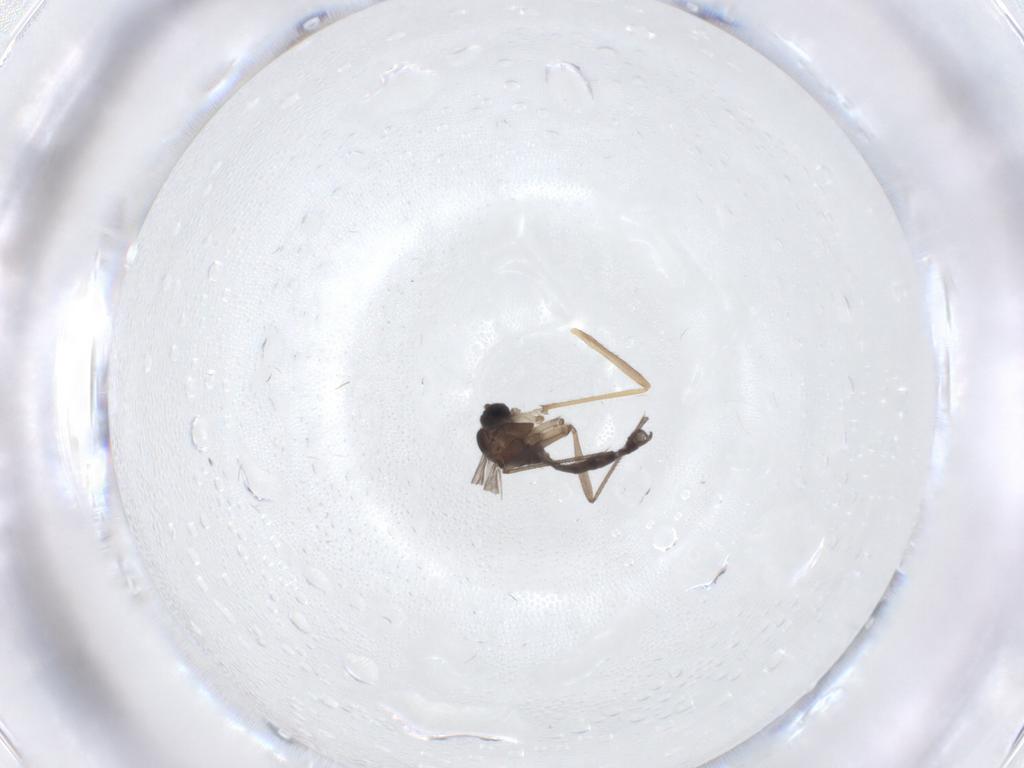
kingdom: Animalia
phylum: Arthropoda
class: Insecta
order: Diptera
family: Sciaridae
